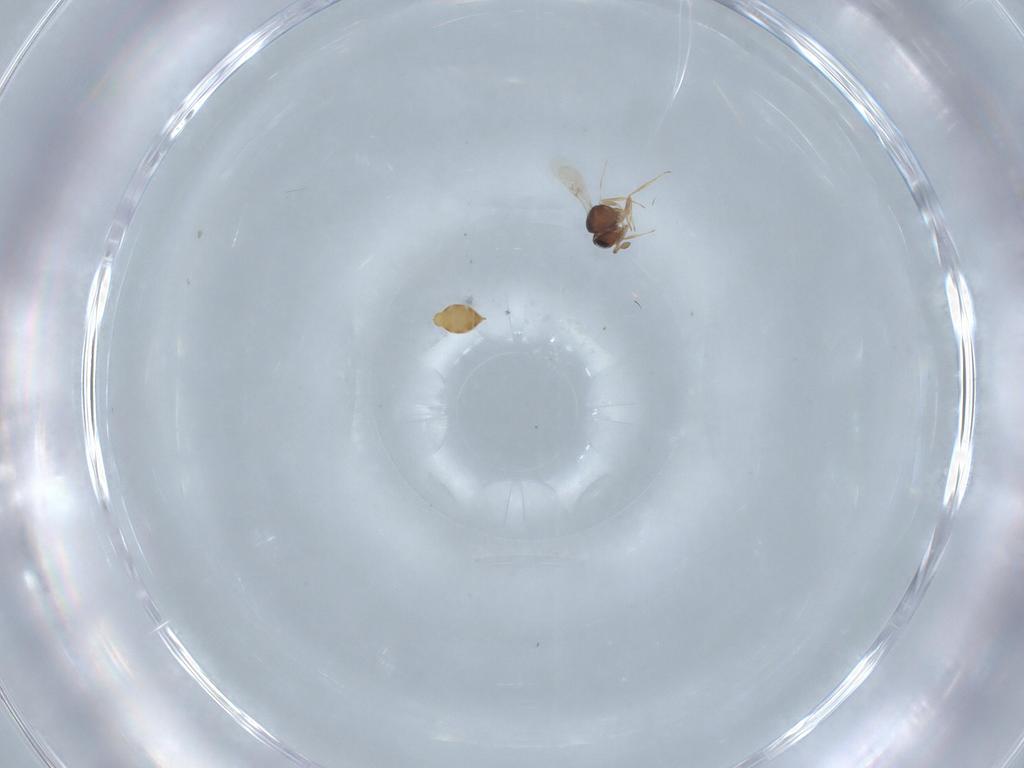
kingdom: Animalia
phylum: Arthropoda
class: Insecta
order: Hymenoptera
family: Scelionidae
